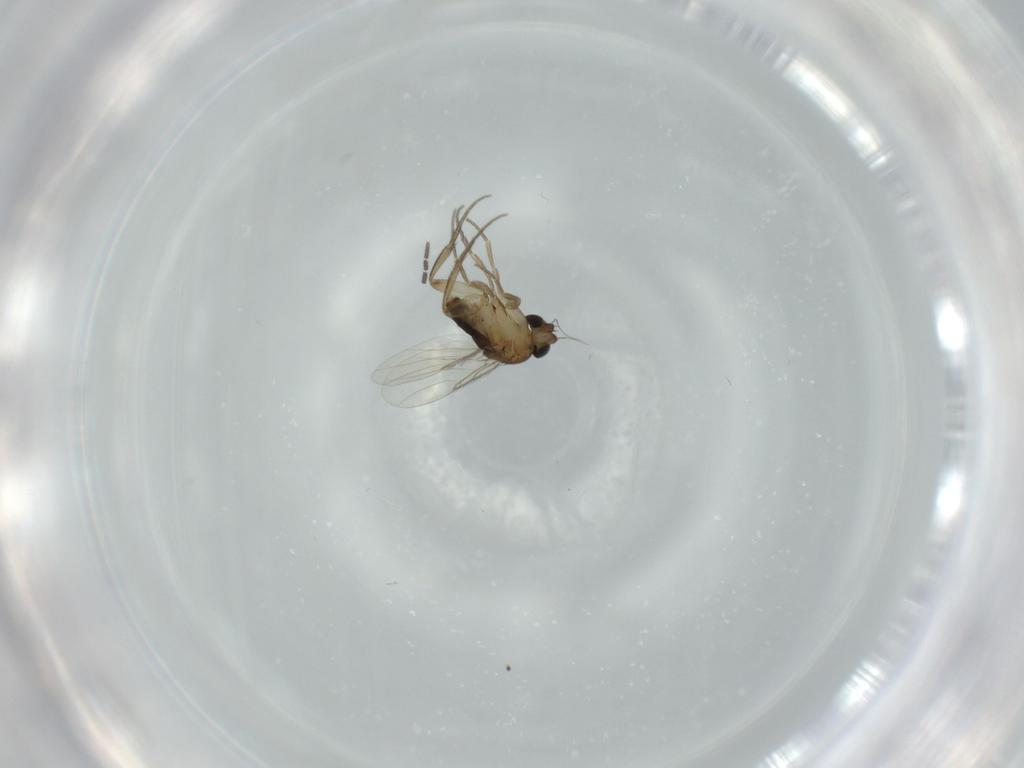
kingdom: Animalia
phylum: Arthropoda
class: Insecta
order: Diptera
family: Phoridae
